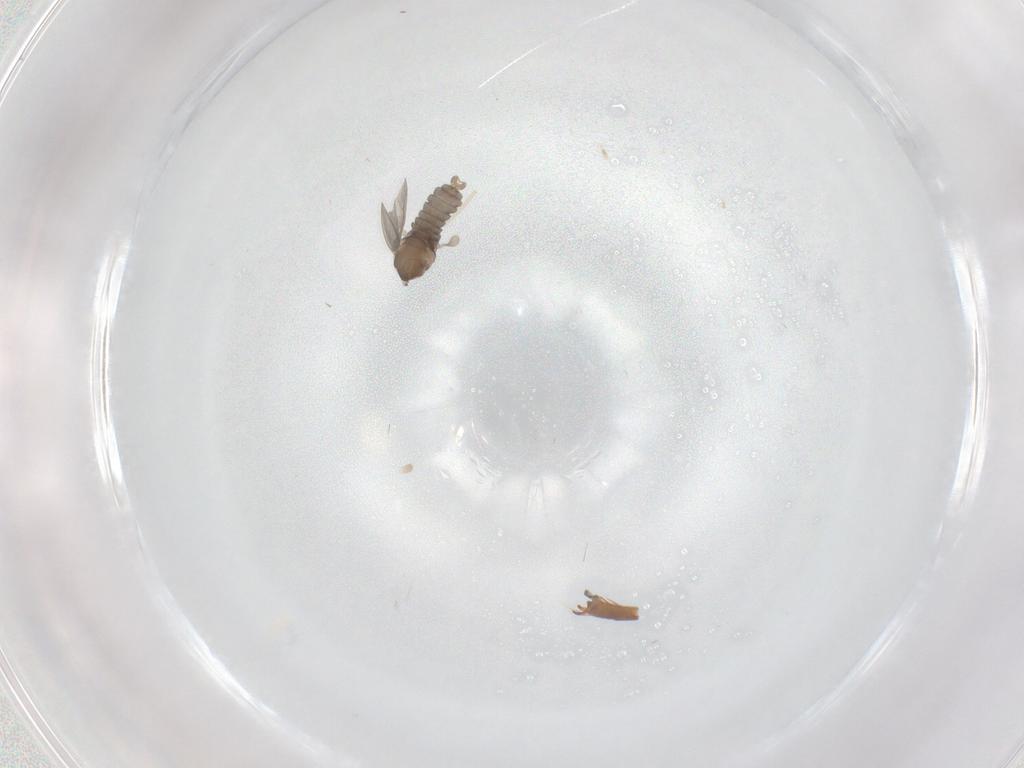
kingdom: Animalia
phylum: Arthropoda
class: Insecta
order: Diptera
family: Cecidomyiidae
